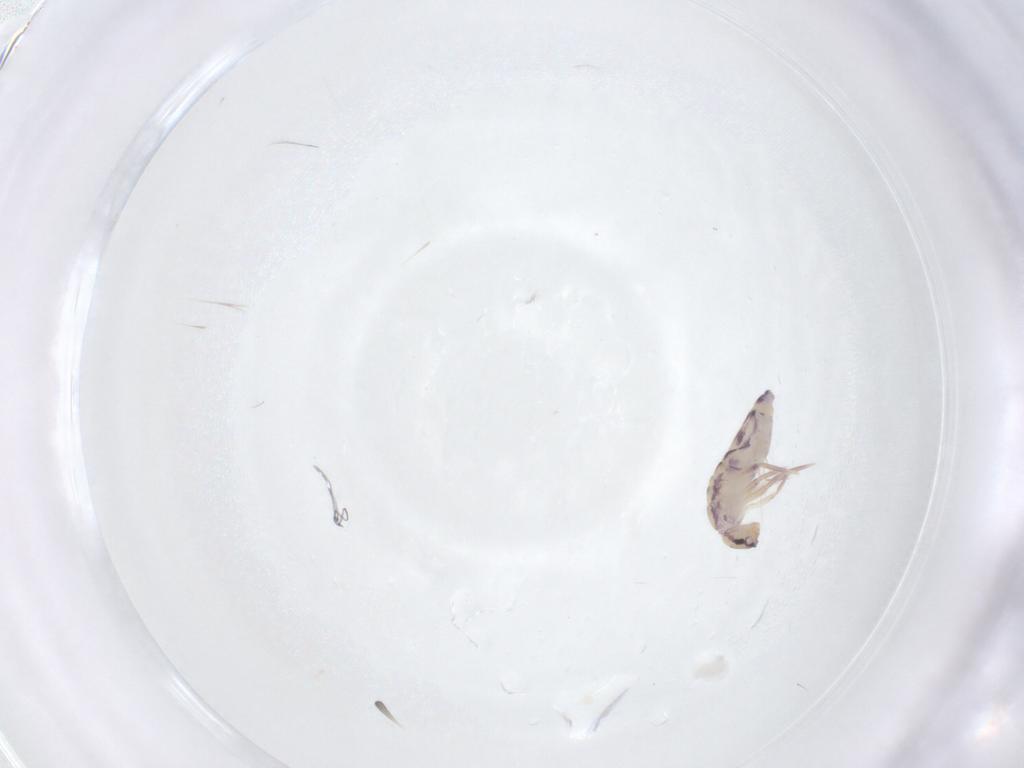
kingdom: Animalia
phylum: Arthropoda
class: Collembola
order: Entomobryomorpha
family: Entomobryidae
